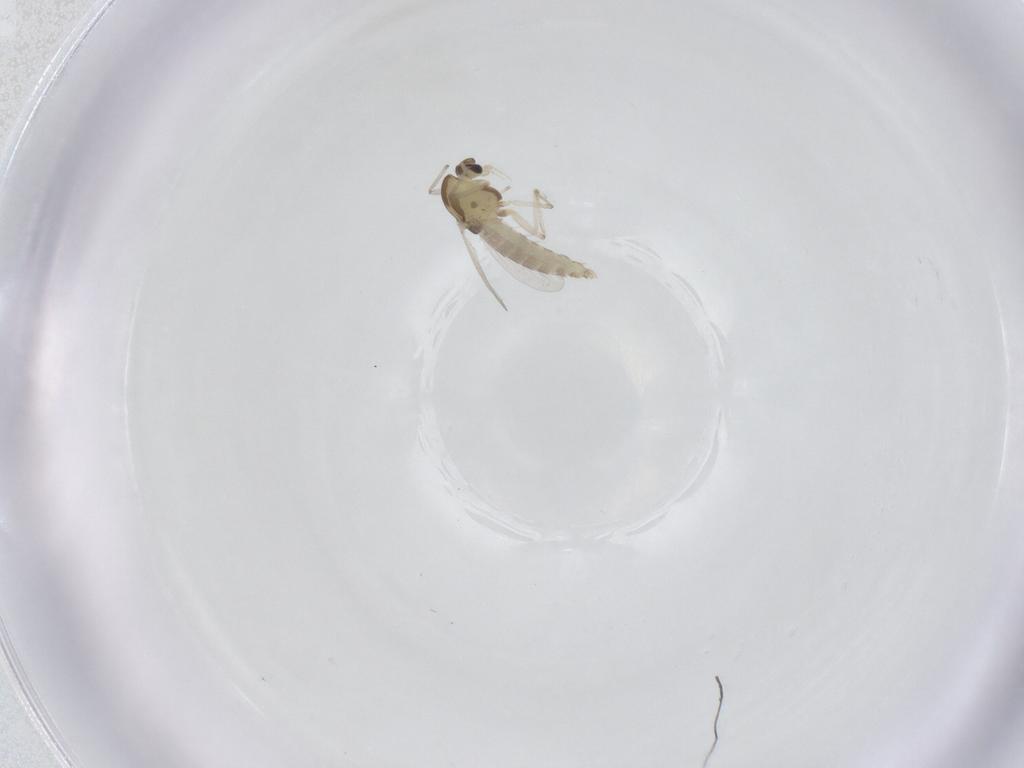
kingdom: Animalia
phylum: Arthropoda
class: Insecta
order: Diptera
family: Chironomidae
